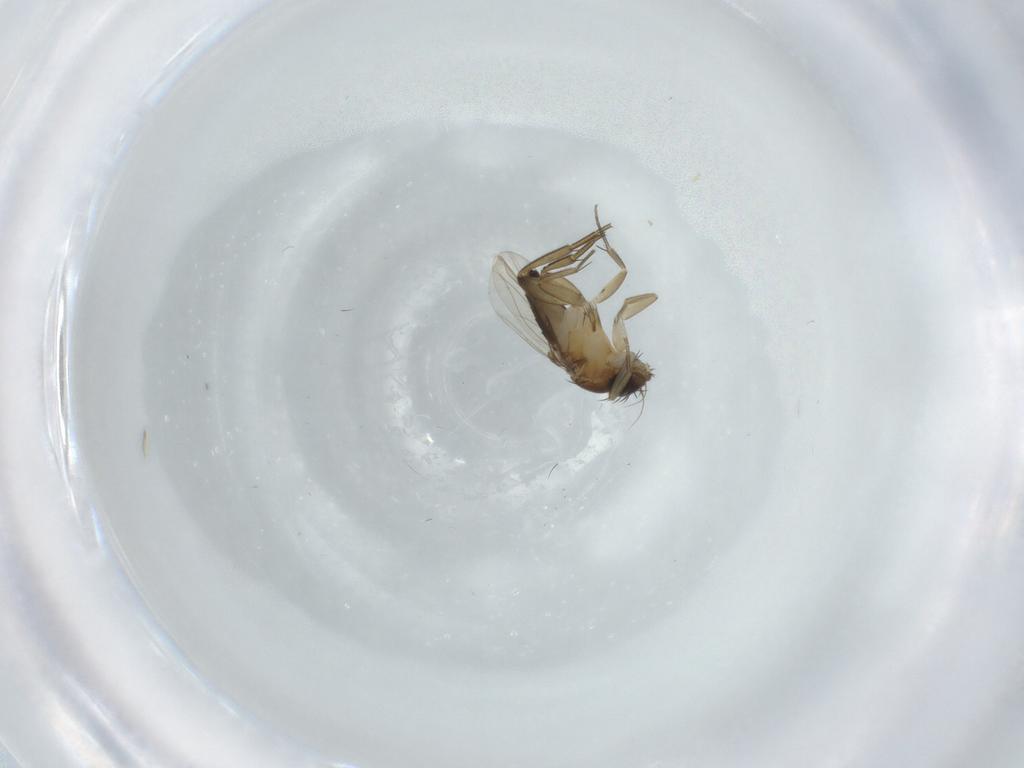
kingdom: Animalia
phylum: Arthropoda
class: Insecta
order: Diptera
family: Phoridae
